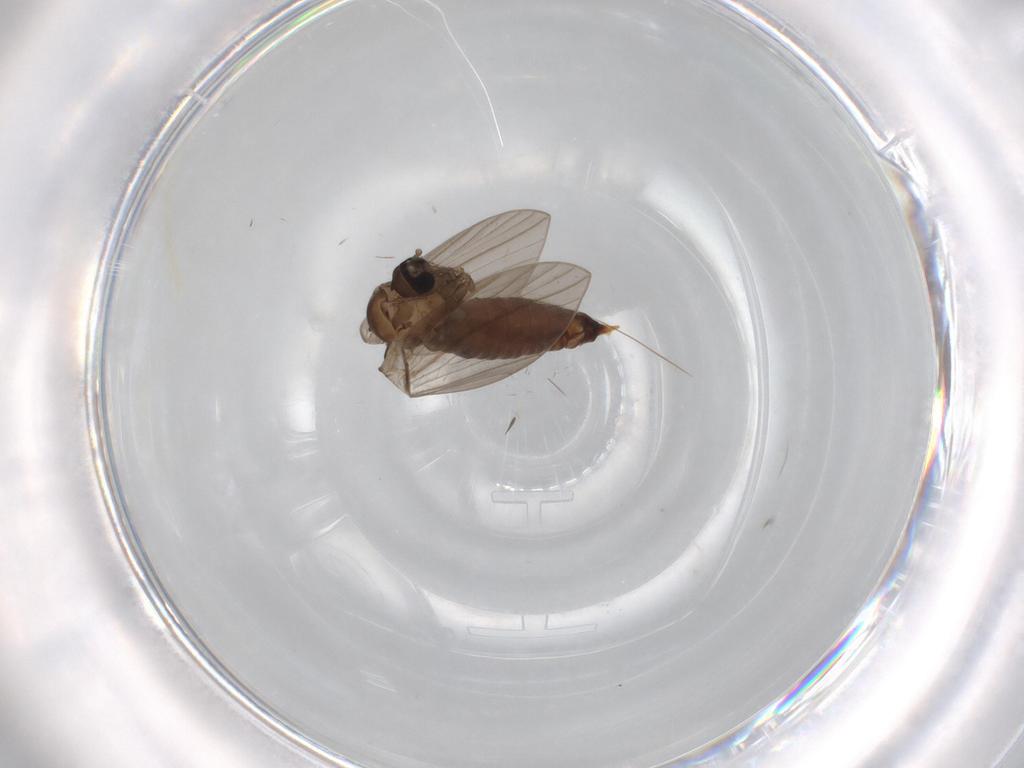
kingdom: Animalia
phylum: Arthropoda
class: Insecta
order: Diptera
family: Psychodidae
